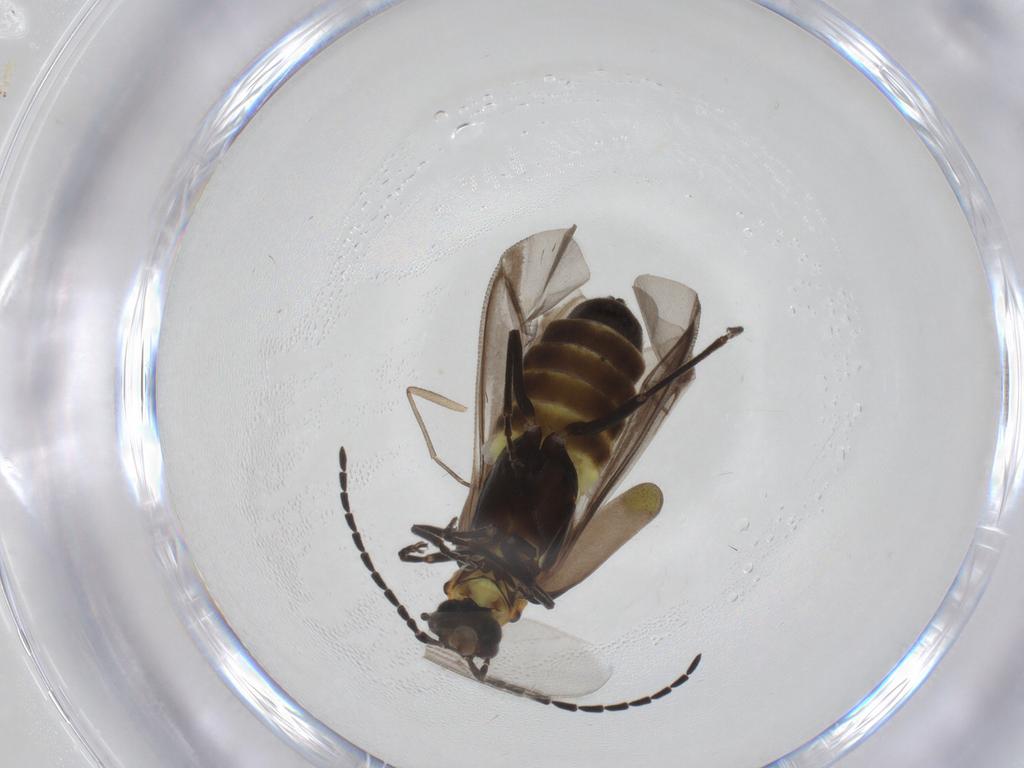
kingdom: Animalia
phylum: Arthropoda
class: Insecta
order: Coleoptera
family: Cantharidae
